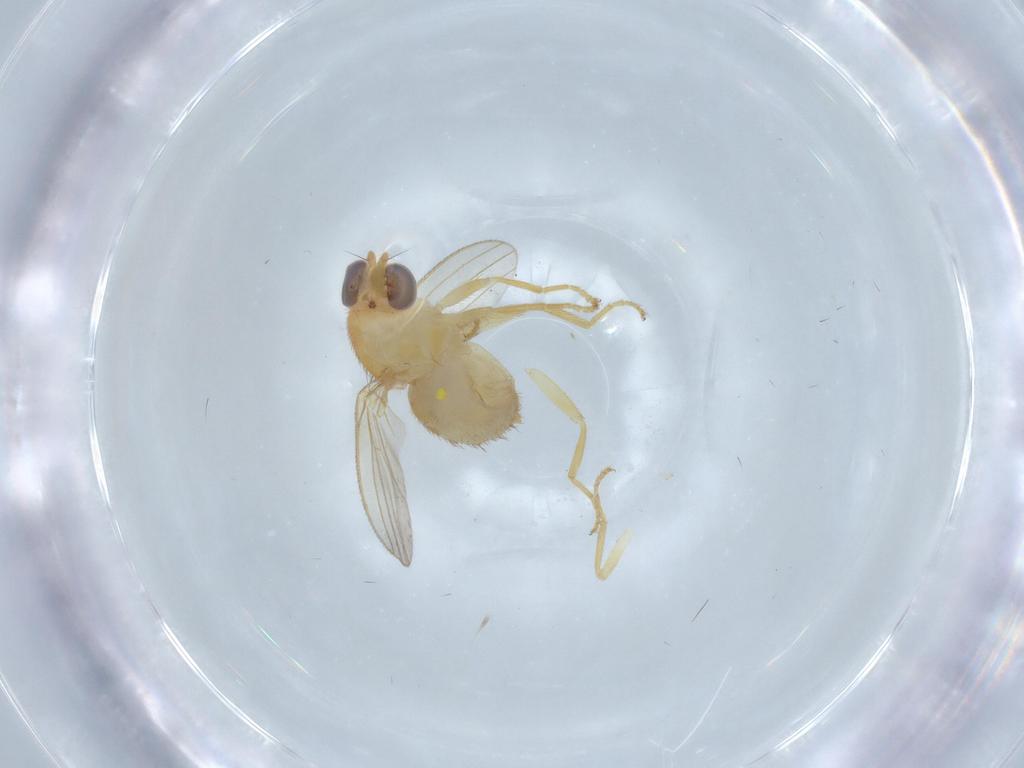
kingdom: Animalia
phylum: Arthropoda
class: Insecta
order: Diptera
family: Chyromyidae
